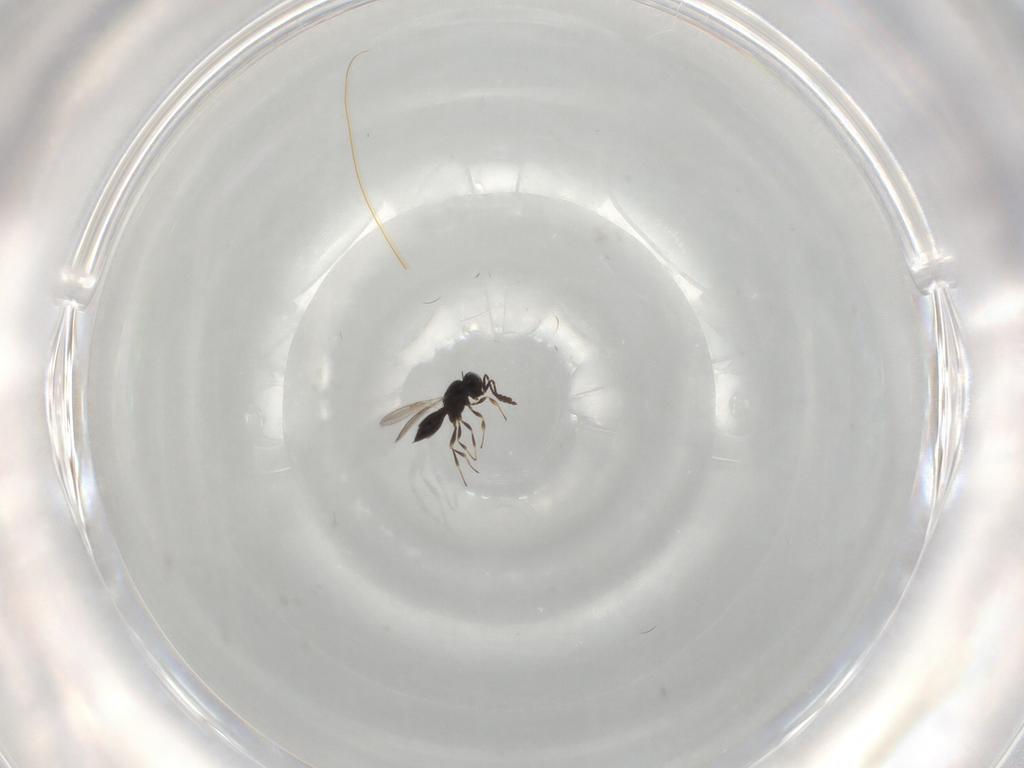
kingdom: Animalia
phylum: Arthropoda
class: Insecta
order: Hymenoptera
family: Scelionidae
